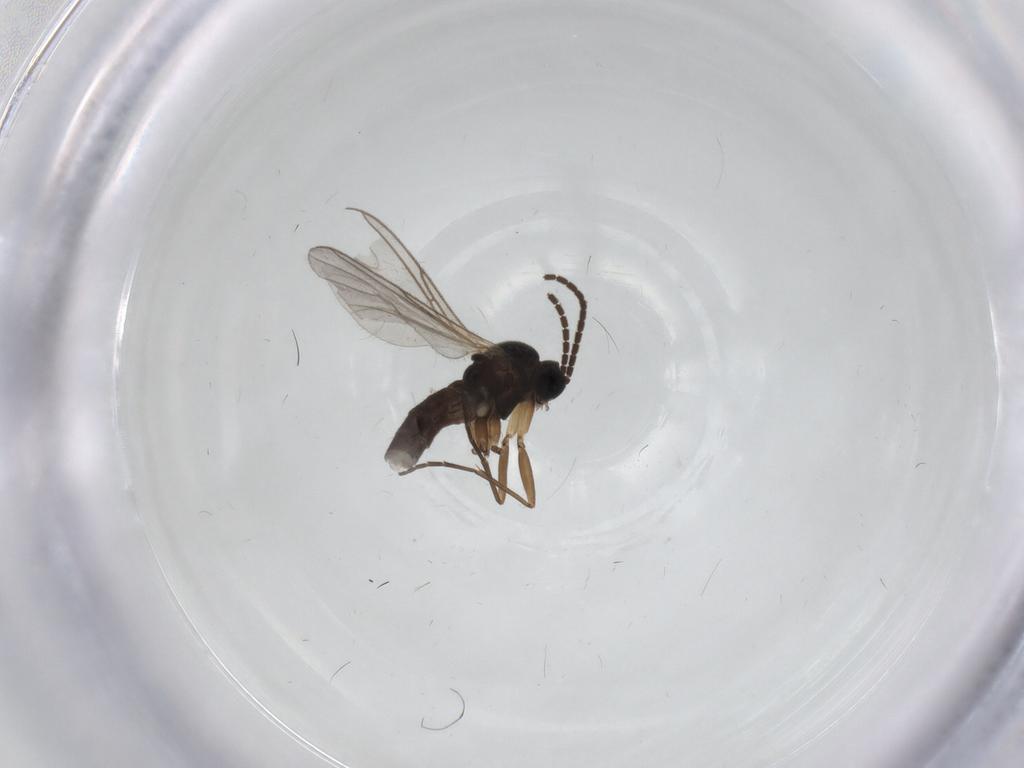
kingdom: Animalia
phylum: Arthropoda
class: Insecta
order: Diptera
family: Sciaridae
